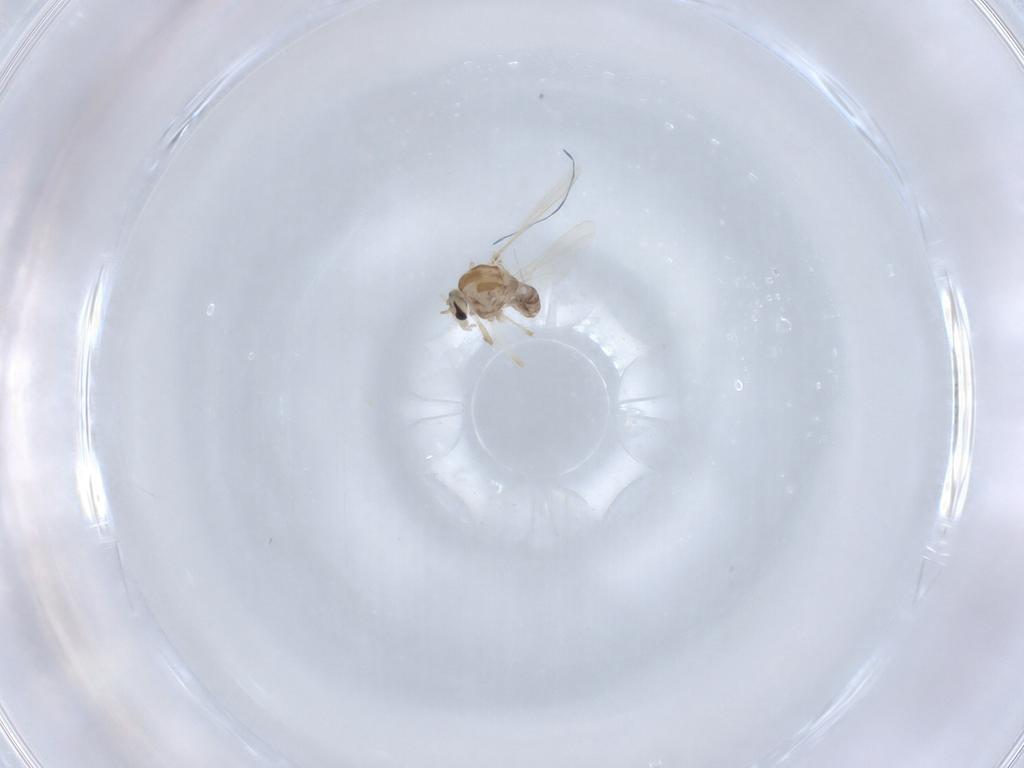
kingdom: Animalia
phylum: Arthropoda
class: Insecta
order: Diptera
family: Chironomidae
